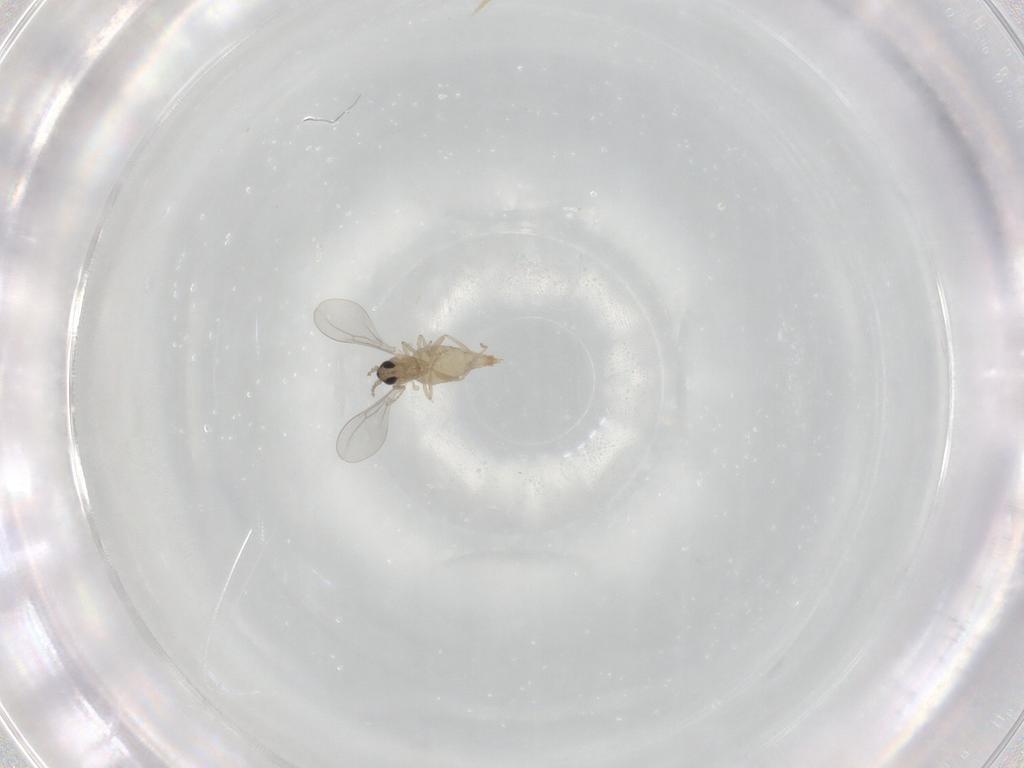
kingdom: Animalia
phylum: Arthropoda
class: Insecta
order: Diptera
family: Cecidomyiidae
